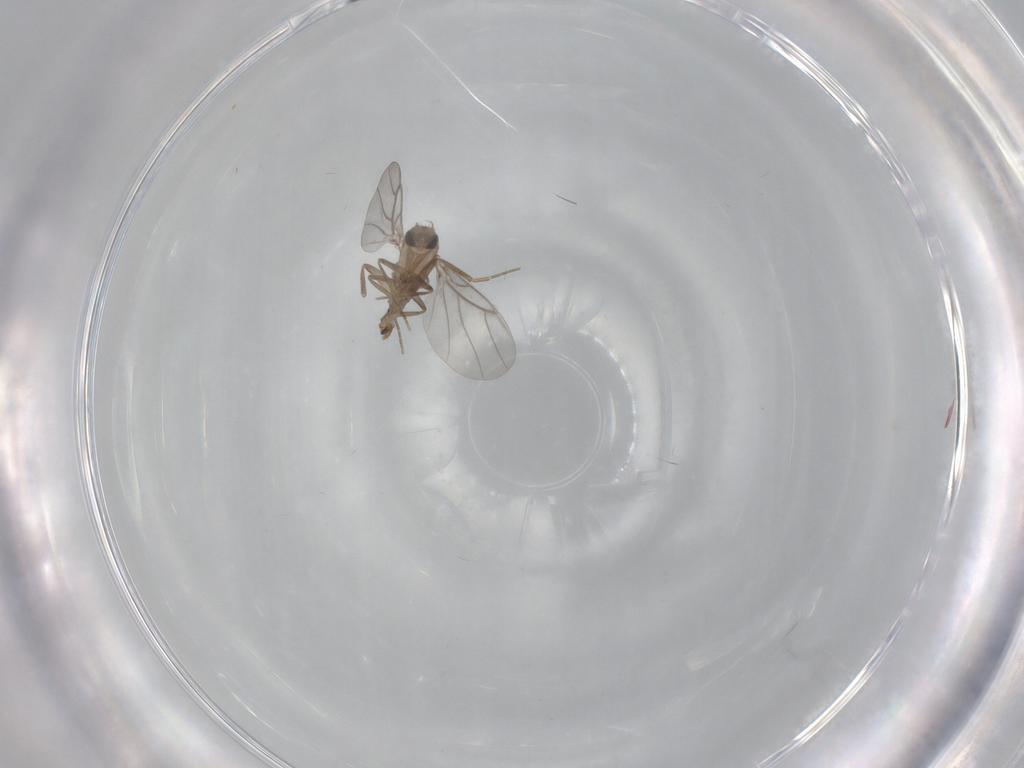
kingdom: Animalia
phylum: Arthropoda
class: Insecta
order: Diptera
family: Limoniidae
